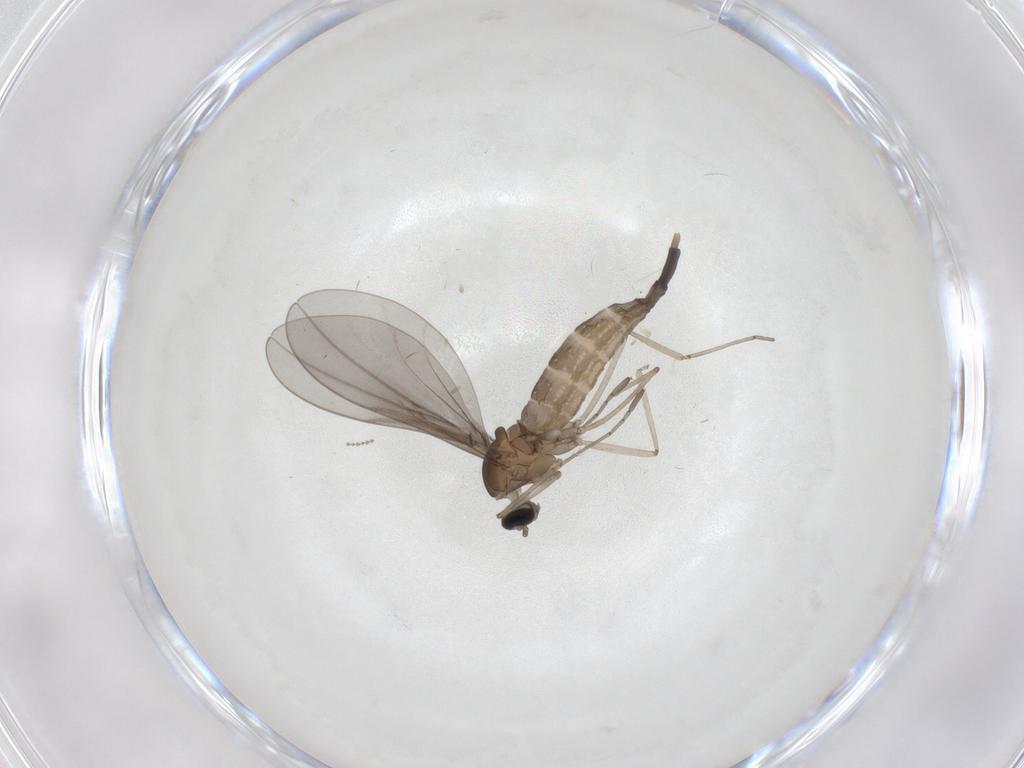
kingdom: Animalia
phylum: Arthropoda
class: Insecta
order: Diptera
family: Cecidomyiidae
